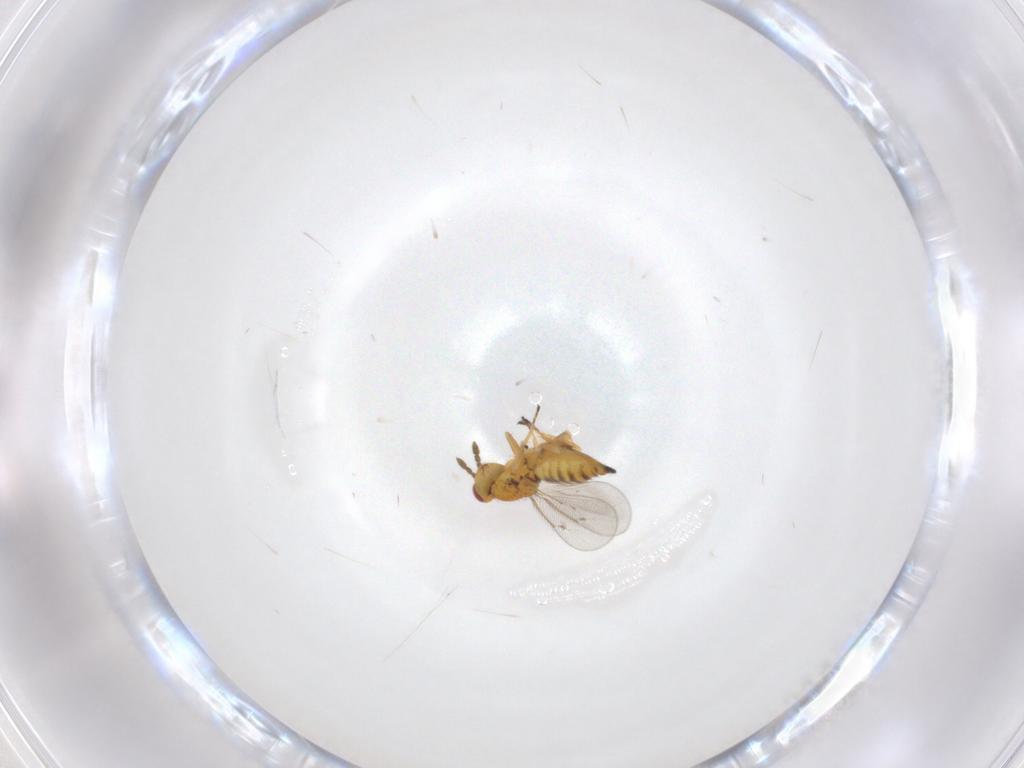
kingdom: Animalia
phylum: Arthropoda
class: Insecta
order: Hymenoptera
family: Eulophidae
